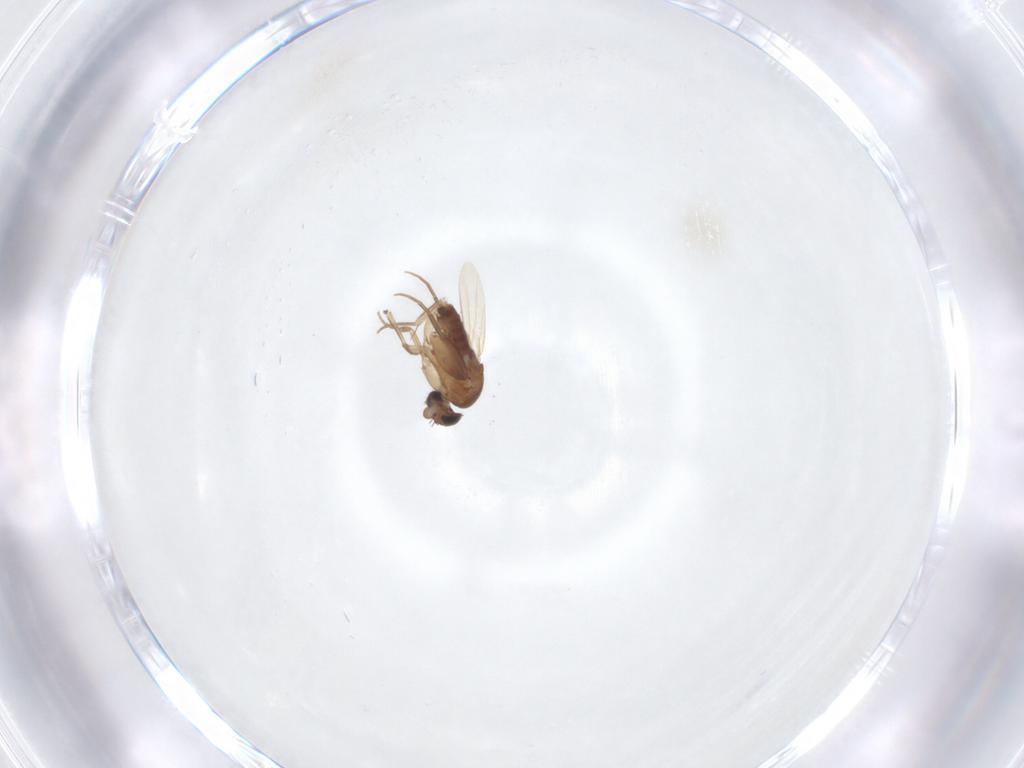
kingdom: Animalia
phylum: Arthropoda
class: Insecta
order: Diptera
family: Phoridae
